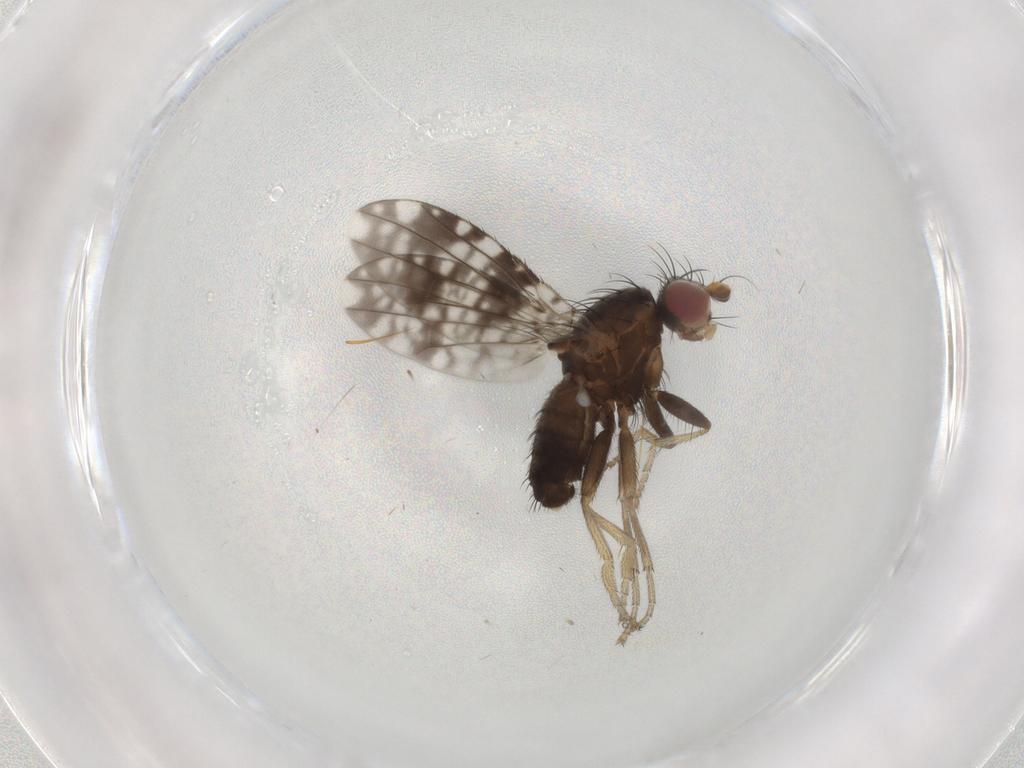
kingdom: Animalia
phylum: Arthropoda
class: Insecta
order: Diptera
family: Tephritidae
